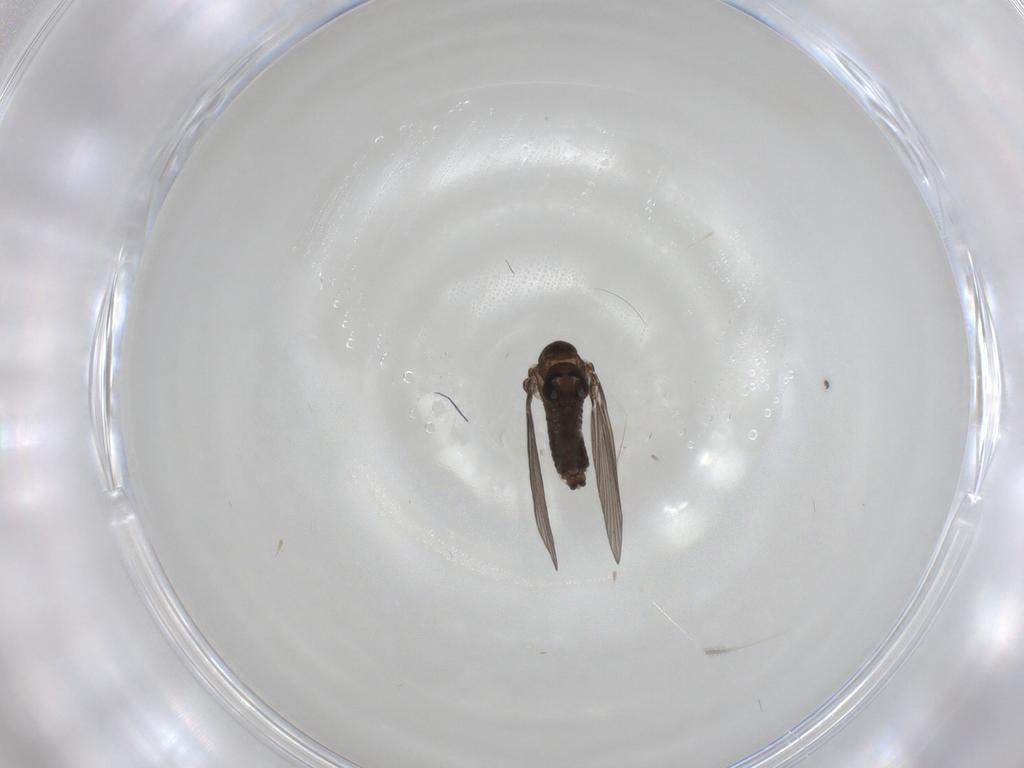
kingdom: Animalia
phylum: Arthropoda
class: Insecta
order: Diptera
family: Psychodidae
